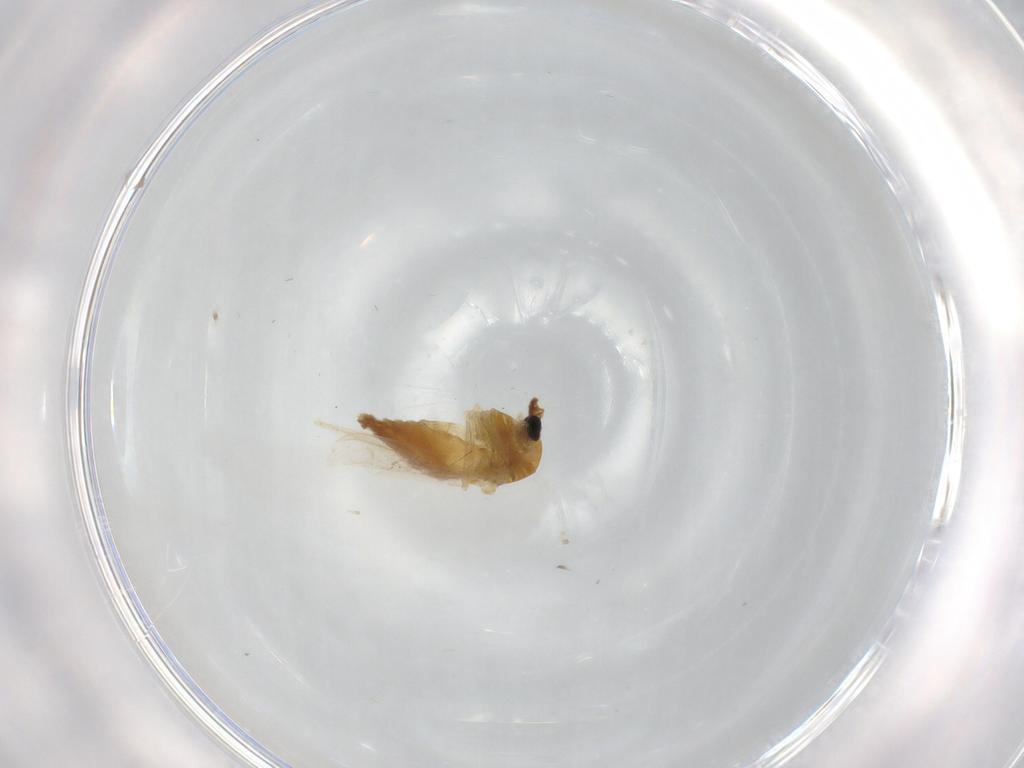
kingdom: Animalia
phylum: Arthropoda
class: Insecta
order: Diptera
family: Chironomidae
